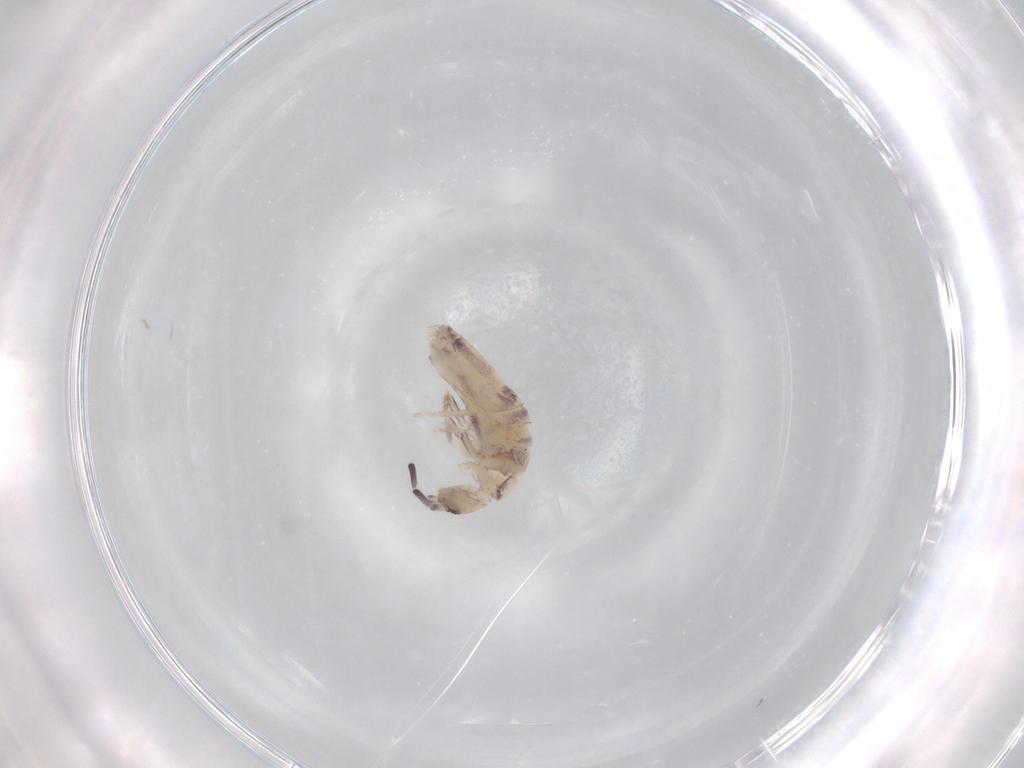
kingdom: Animalia
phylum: Arthropoda
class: Collembola
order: Poduromorpha
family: Hypogastruridae
